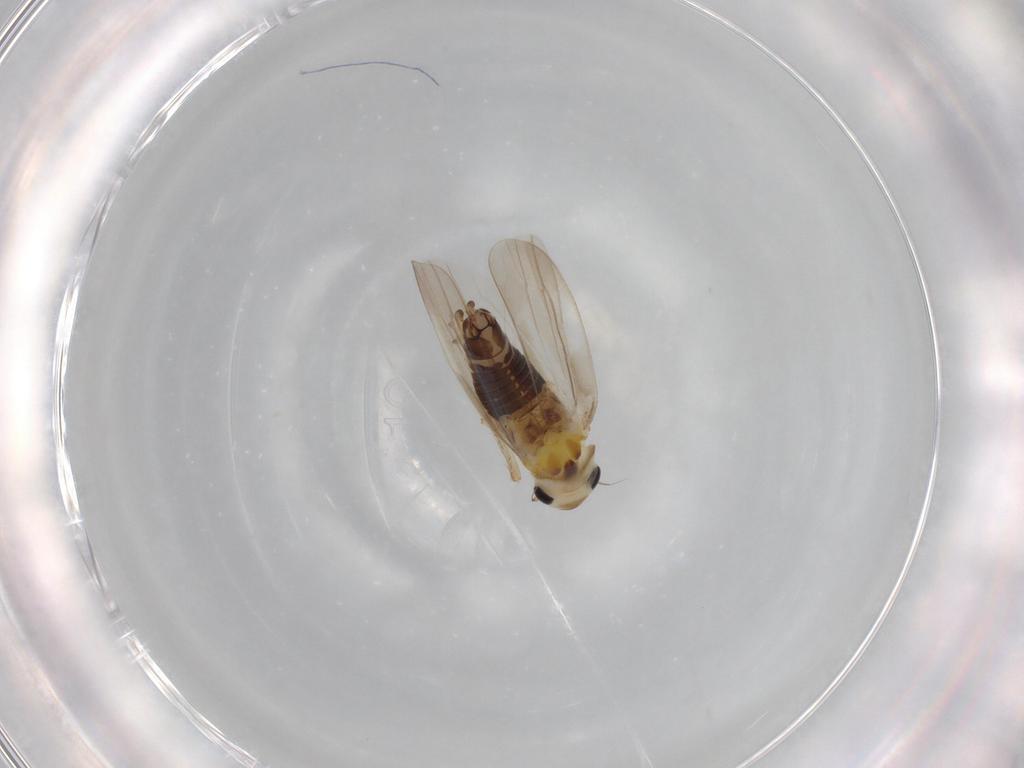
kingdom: Animalia
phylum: Arthropoda
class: Insecta
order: Hemiptera
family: Cicadellidae
